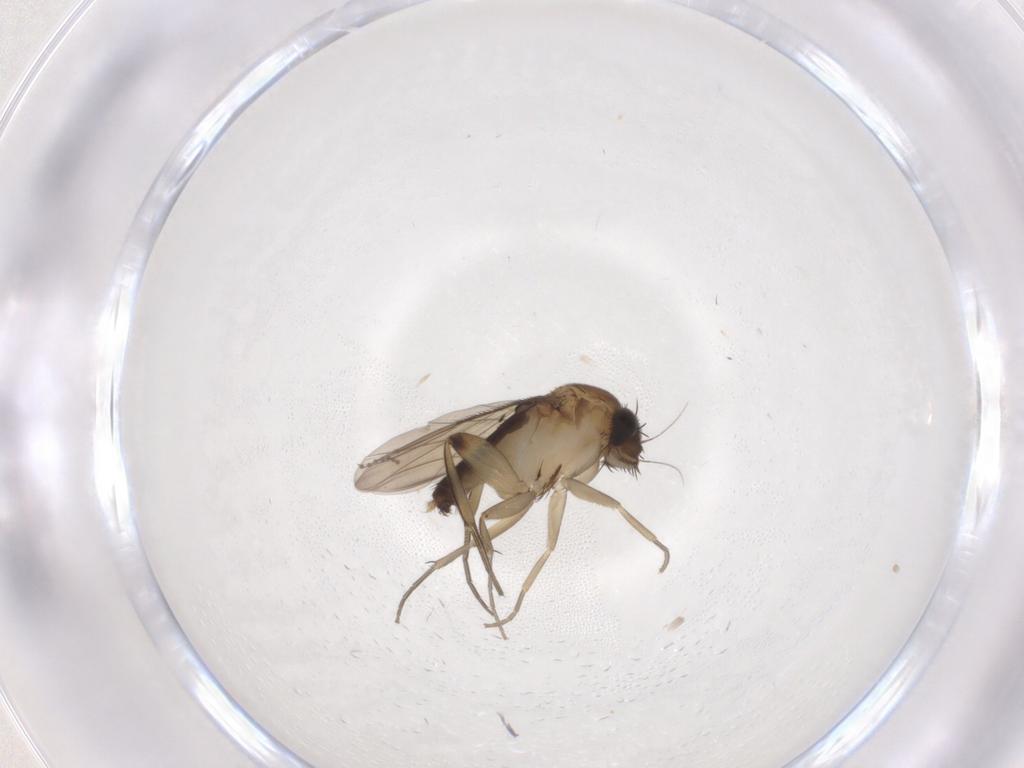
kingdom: Animalia
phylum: Arthropoda
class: Insecta
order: Diptera
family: Phoridae
